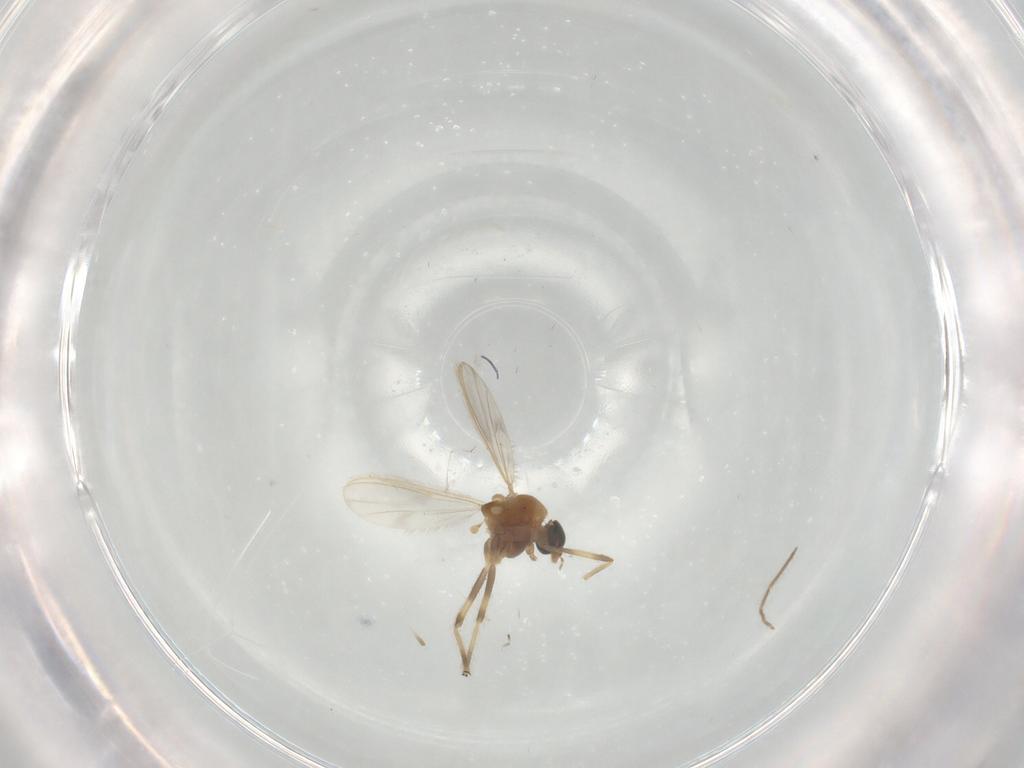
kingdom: Animalia
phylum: Arthropoda
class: Insecta
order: Diptera
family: Chironomidae
